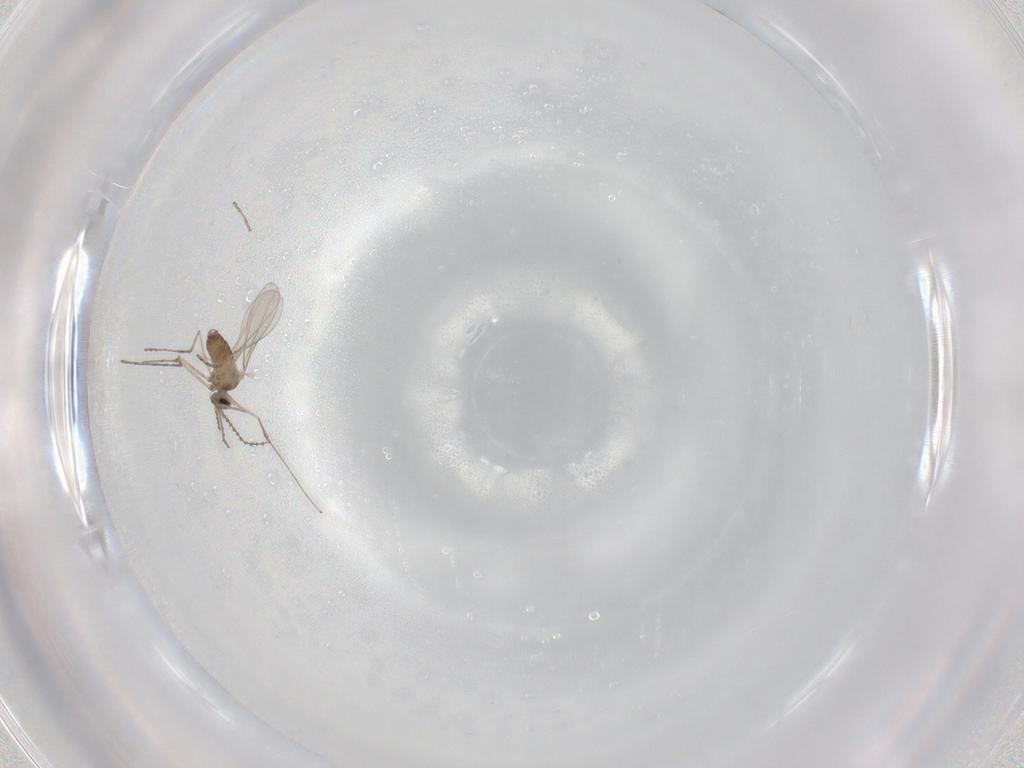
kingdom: Animalia
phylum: Arthropoda
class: Insecta
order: Diptera
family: Cecidomyiidae
